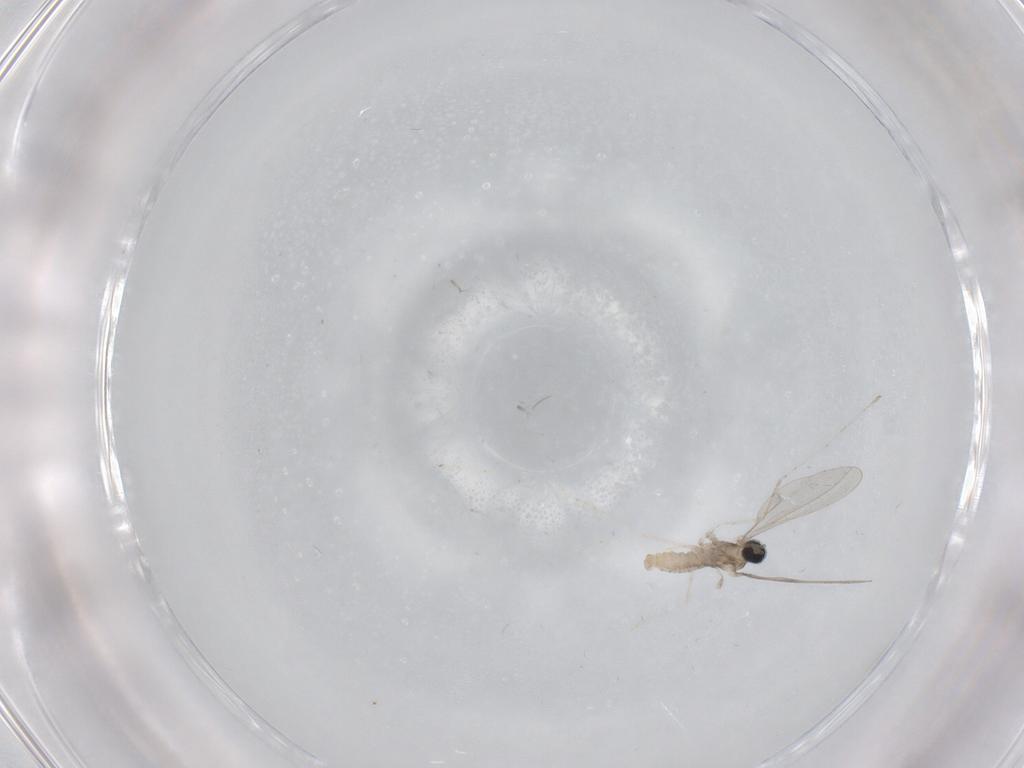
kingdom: Animalia
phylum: Arthropoda
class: Insecta
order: Diptera
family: Cecidomyiidae
